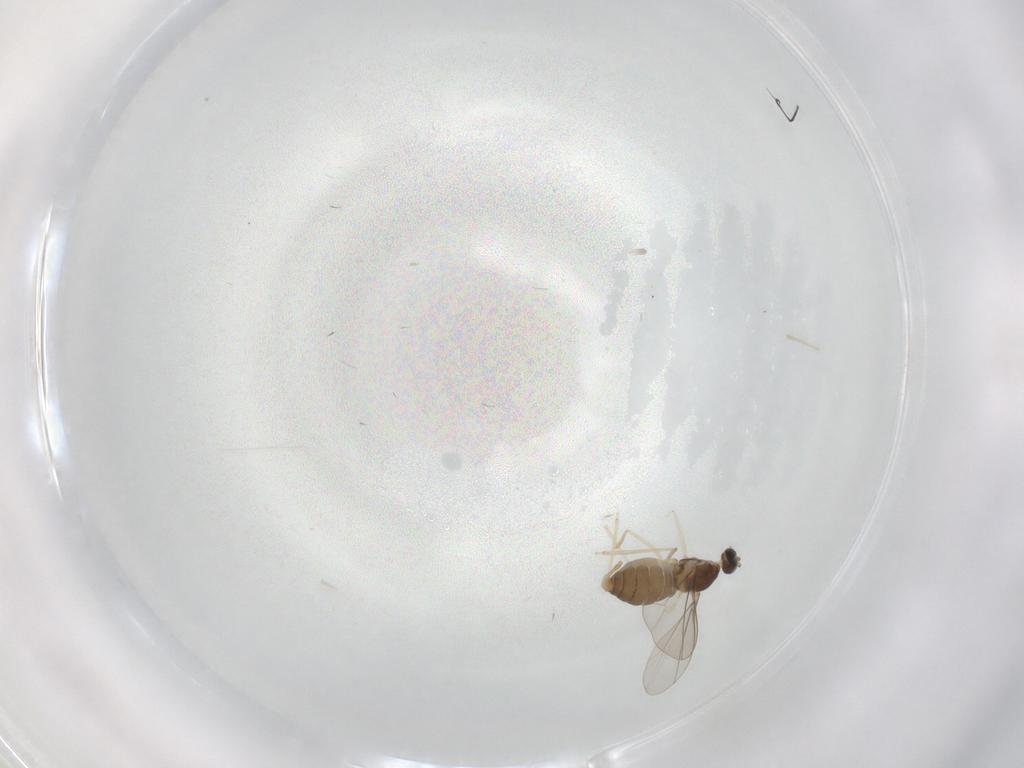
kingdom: Animalia
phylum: Arthropoda
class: Insecta
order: Diptera
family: Cecidomyiidae
